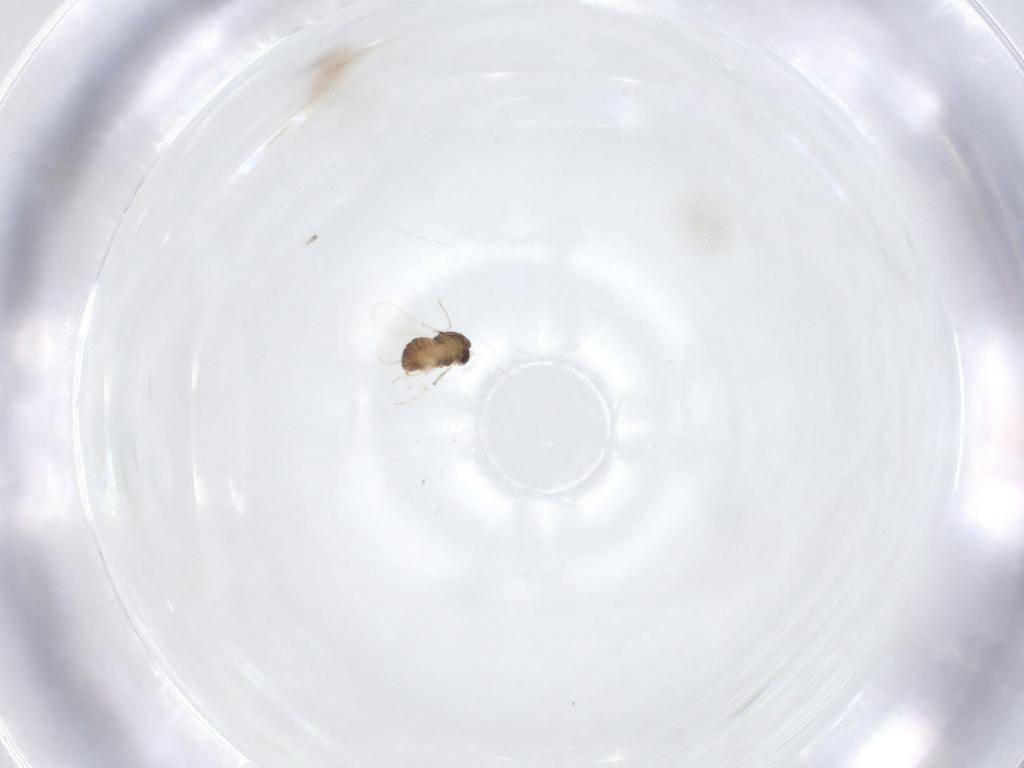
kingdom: Animalia
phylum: Arthropoda
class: Insecta
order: Diptera
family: Chironomidae
